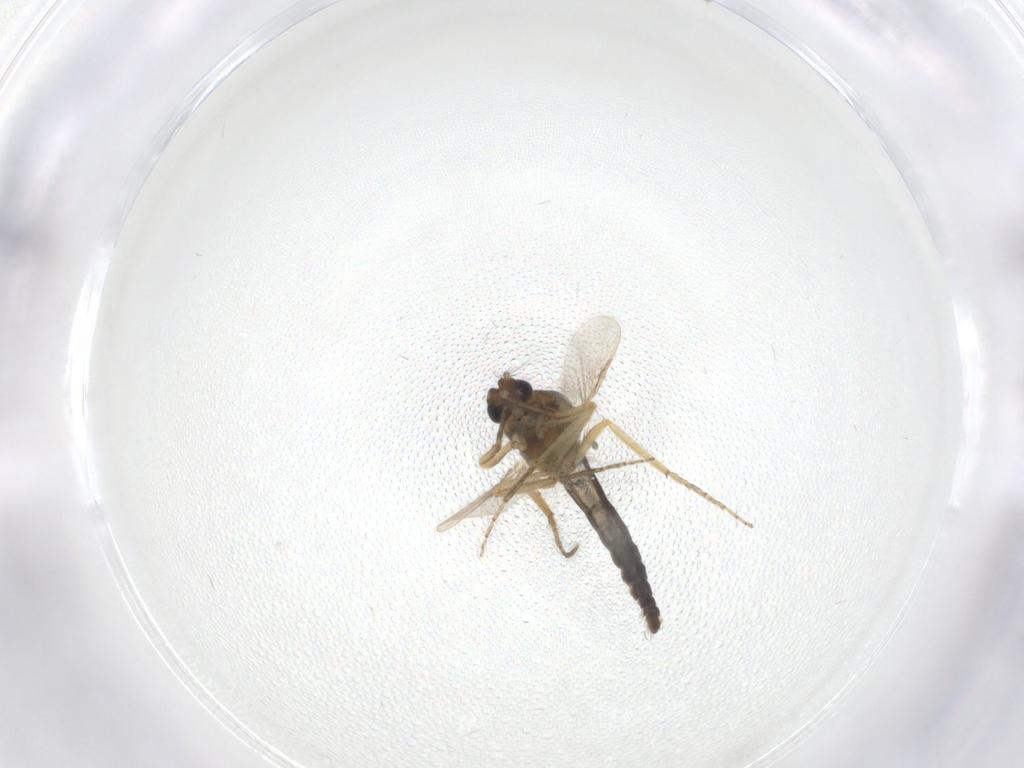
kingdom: Animalia
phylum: Arthropoda
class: Insecta
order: Diptera
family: Ceratopogonidae
